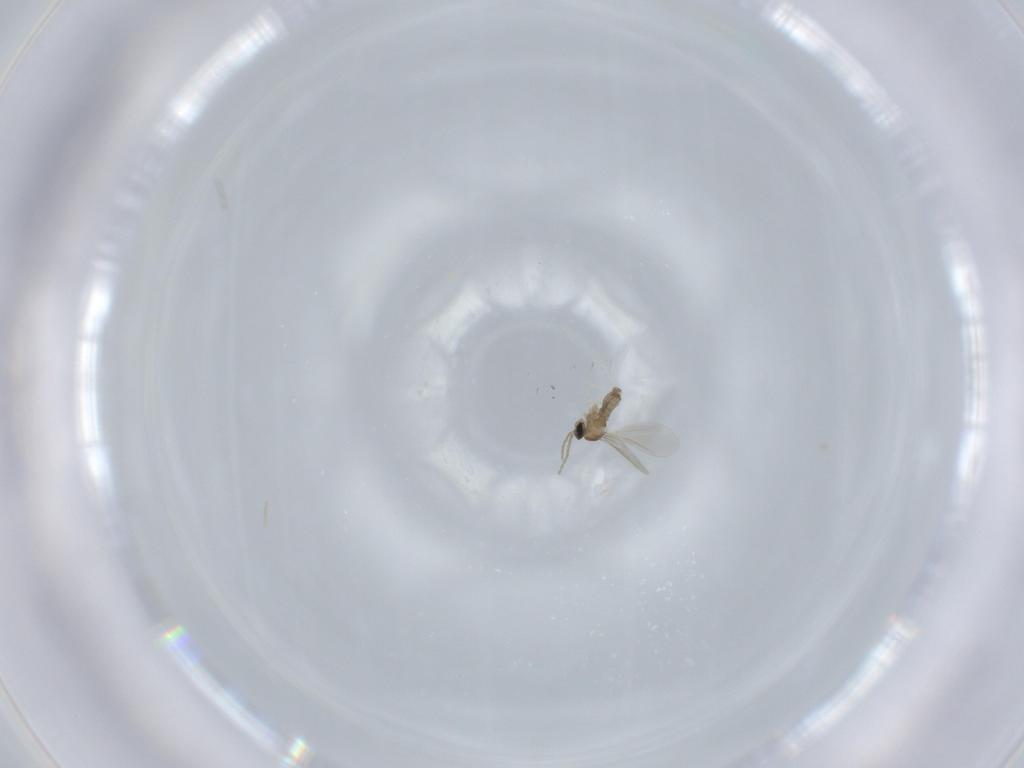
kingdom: Animalia
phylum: Arthropoda
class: Insecta
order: Diptera
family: Cecidomyiidae
